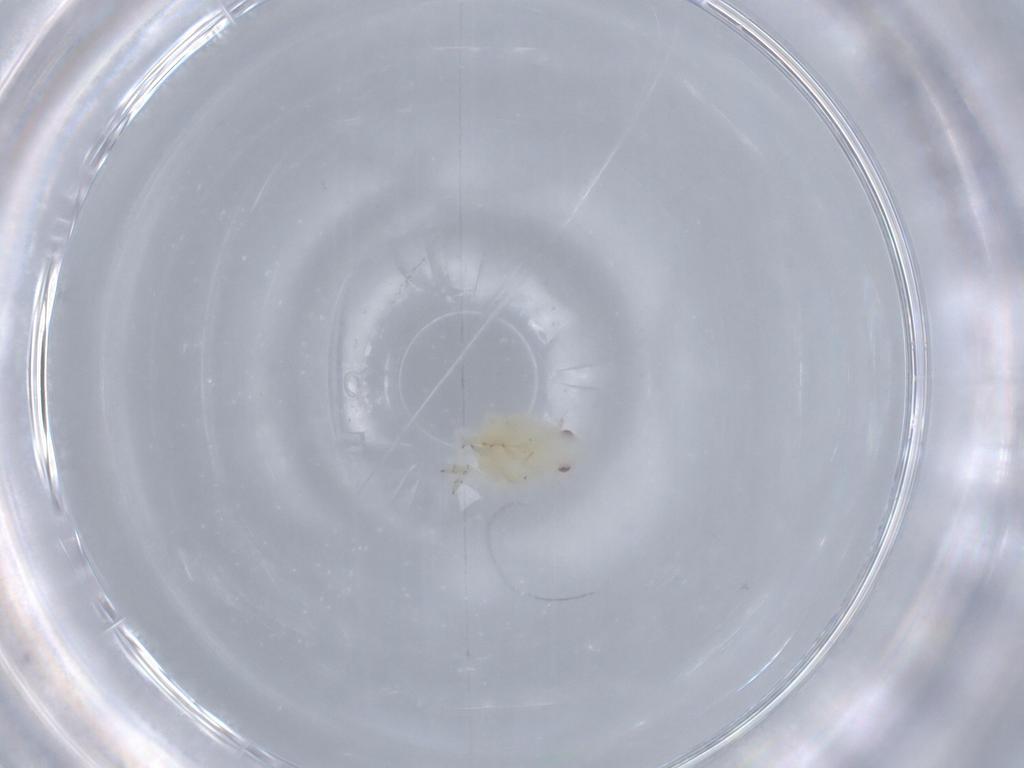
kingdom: Animalia
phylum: Arthropoda
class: Insecta
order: Hemiptera
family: Flatidae
